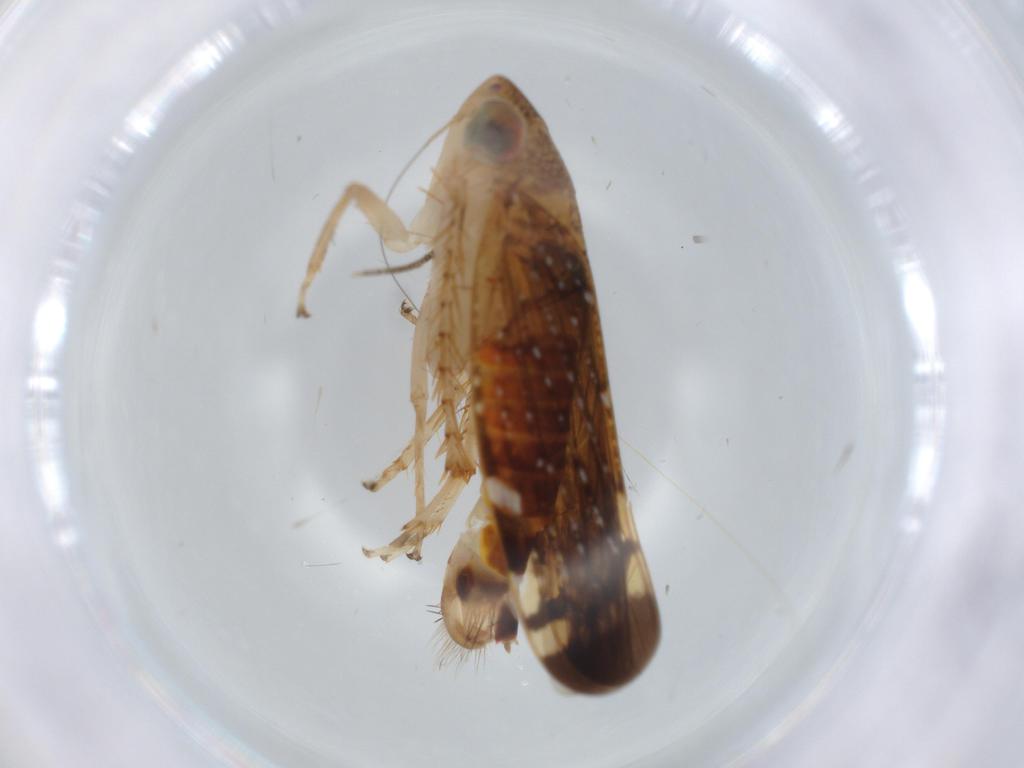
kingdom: Animalia
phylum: Arthropoda
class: Insecta
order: Hemiptera
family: Cicadellidae
